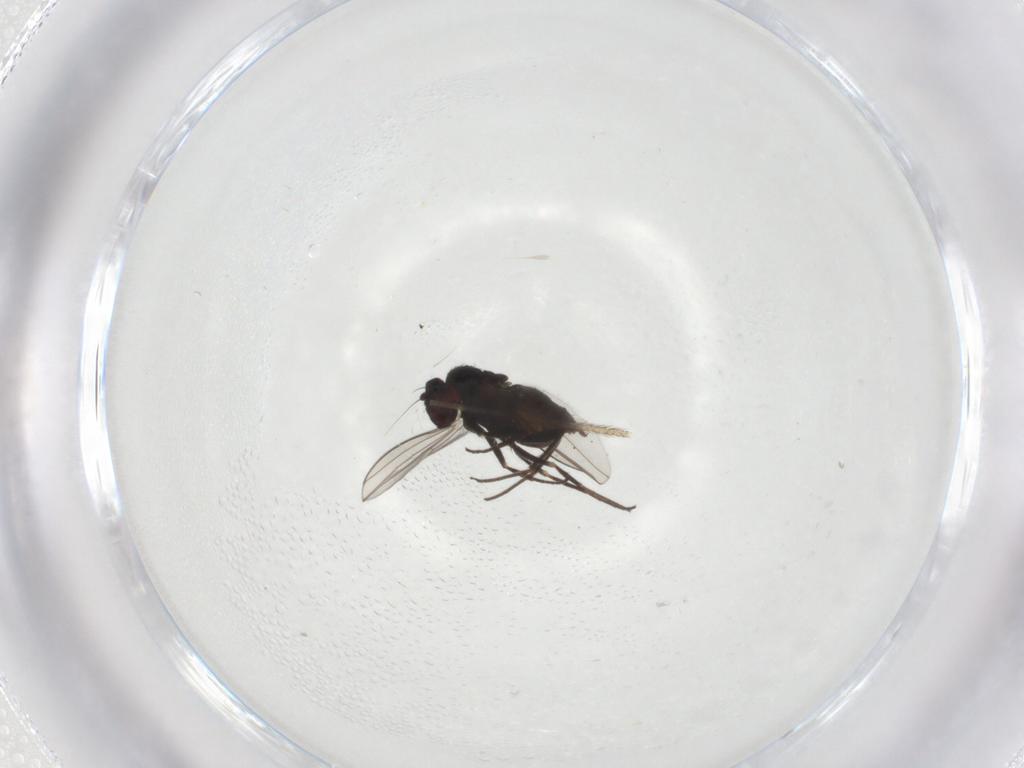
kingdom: Animalia
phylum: Arthropoda
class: Insecta
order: Diptera
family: Dolichopodidae
